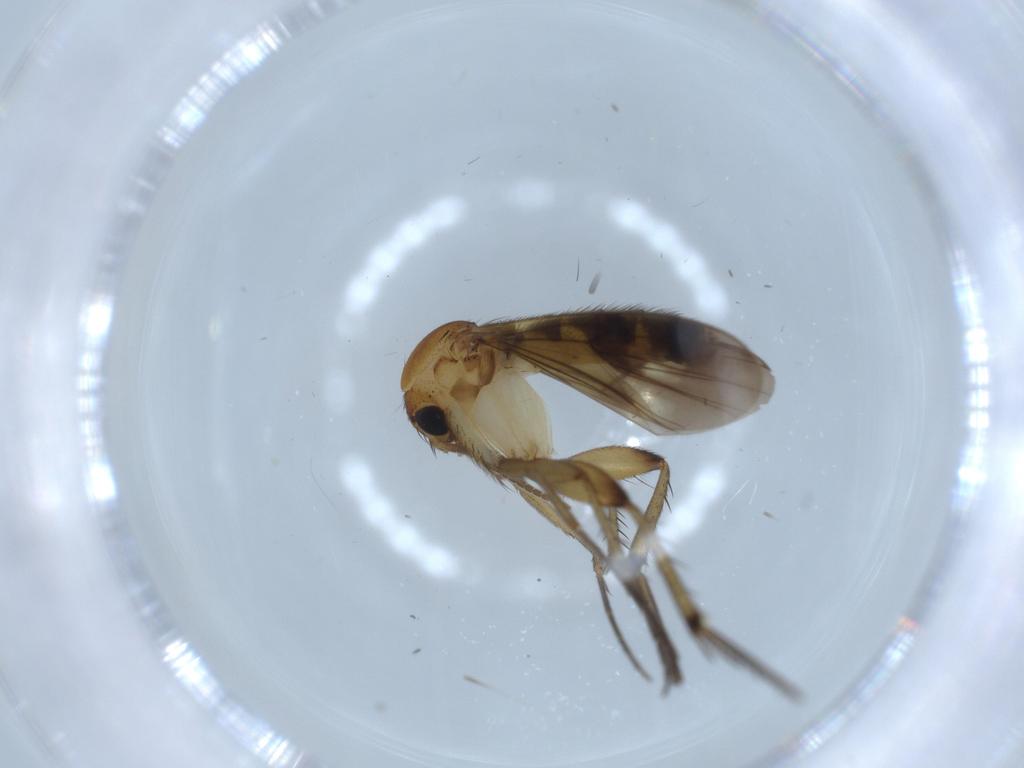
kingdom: Animalia
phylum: Arthropoda
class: Insecta
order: Diptera
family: Mycetophilidae
